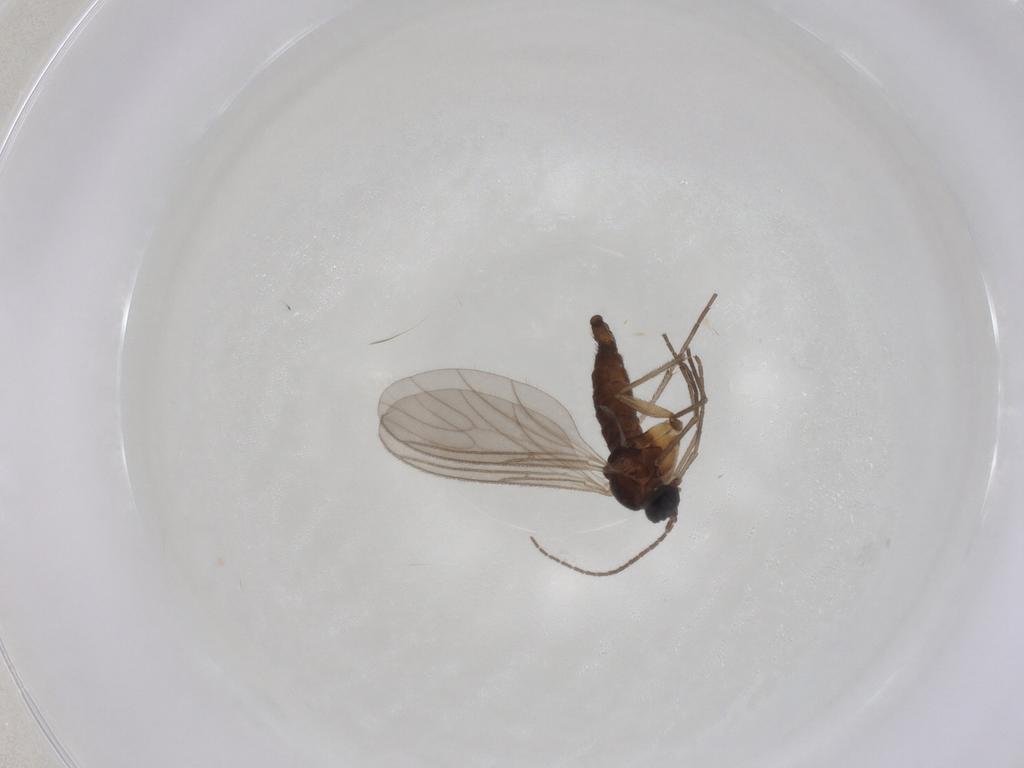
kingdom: Animalia
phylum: Arthropoda
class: Insecta
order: Diptera
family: Sciaridae
